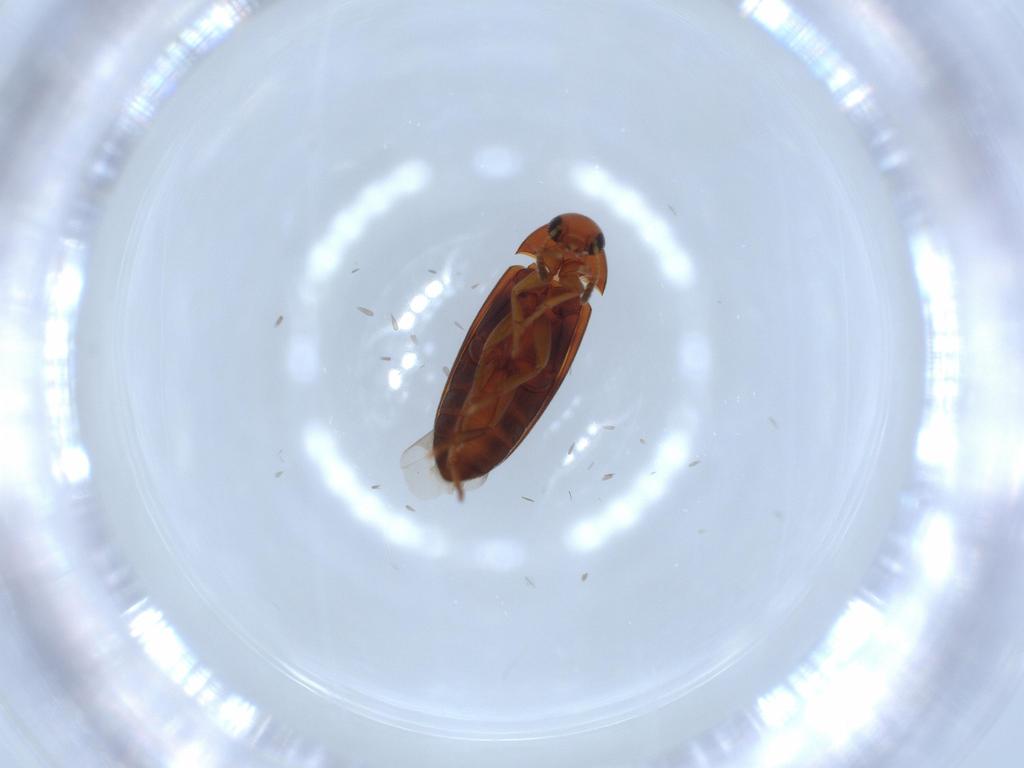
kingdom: Animalia
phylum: Arthropoda
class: Insecta
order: Coleoptera
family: Scraptiidae
